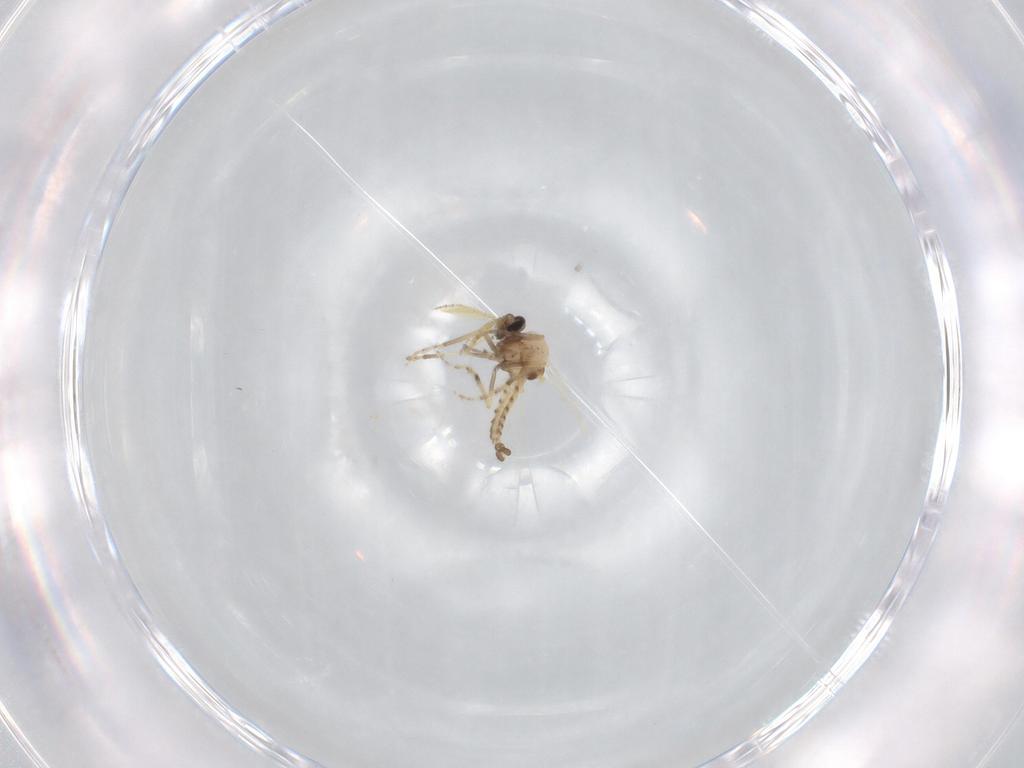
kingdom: Animalia
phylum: Arthropoda
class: Insecta
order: Diptera
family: Ceratopogonidae
